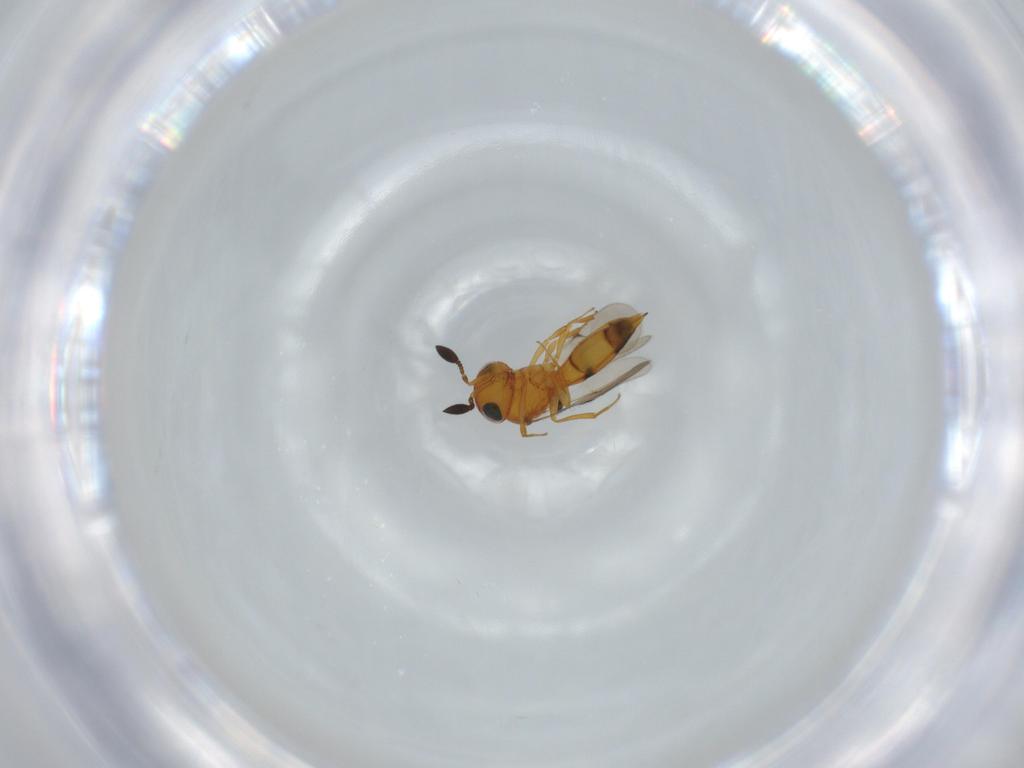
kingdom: Animalia
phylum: Arthropoda
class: Insecta
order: Hymenoptera
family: Scelionidae
